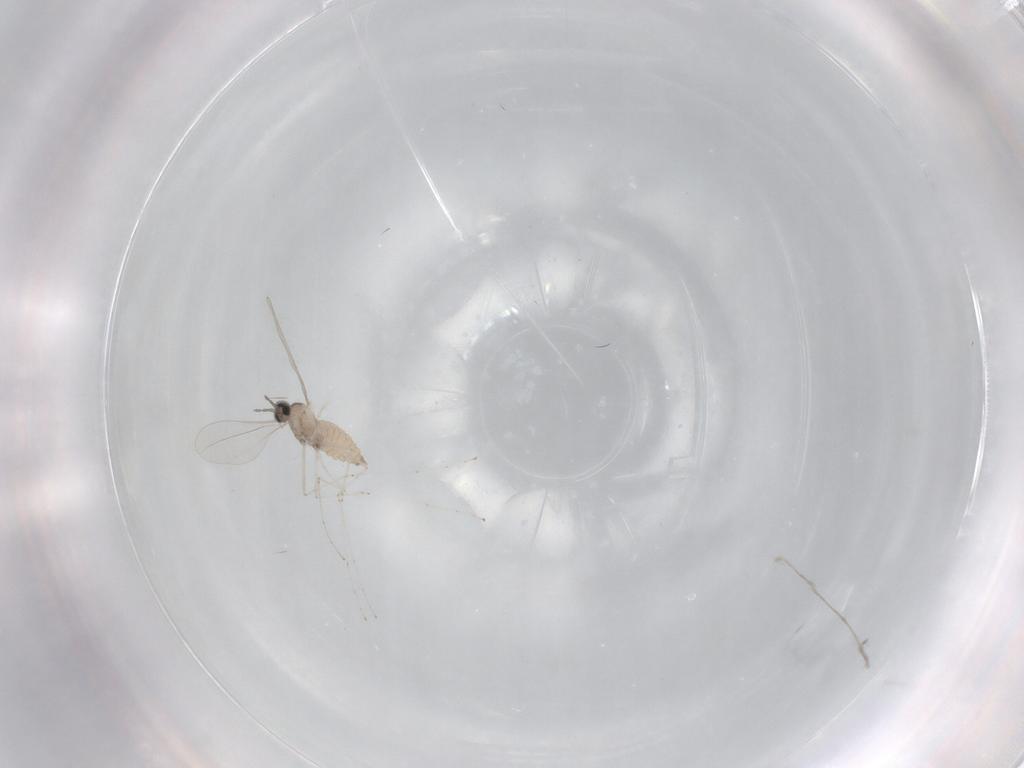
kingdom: Animalia
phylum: Arthropoda
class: Insecta
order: Diptera
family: Cecidomyiidae
